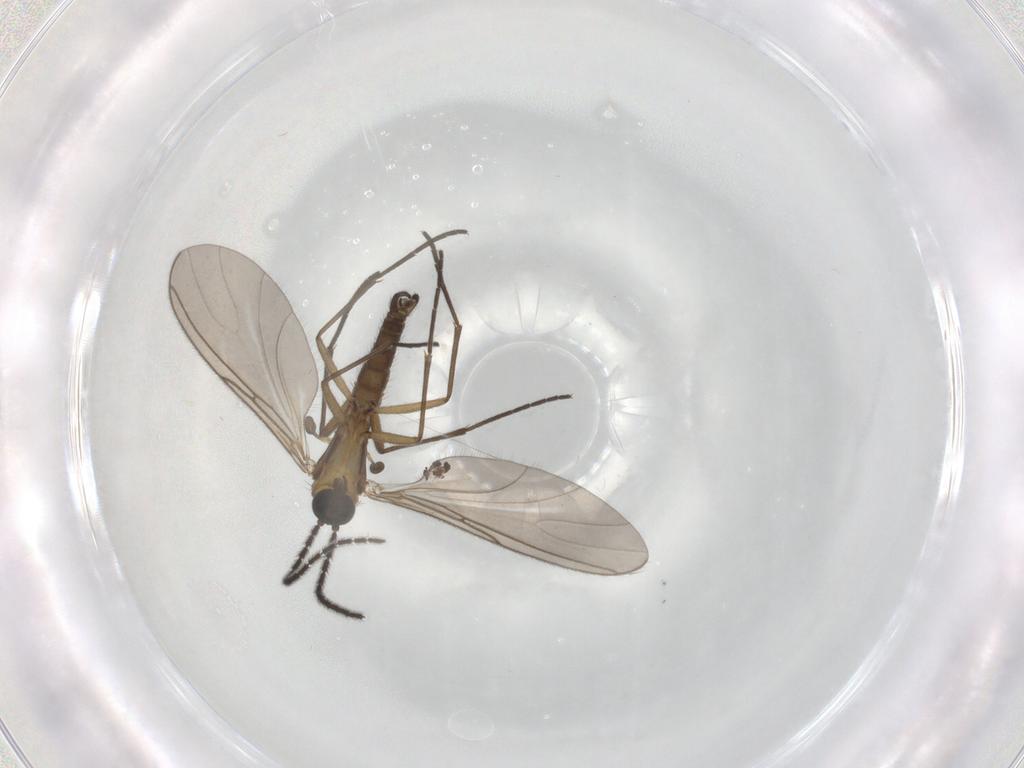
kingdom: Animalia
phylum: Arthropoda
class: Insecta
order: Diptera
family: Sciaridae
